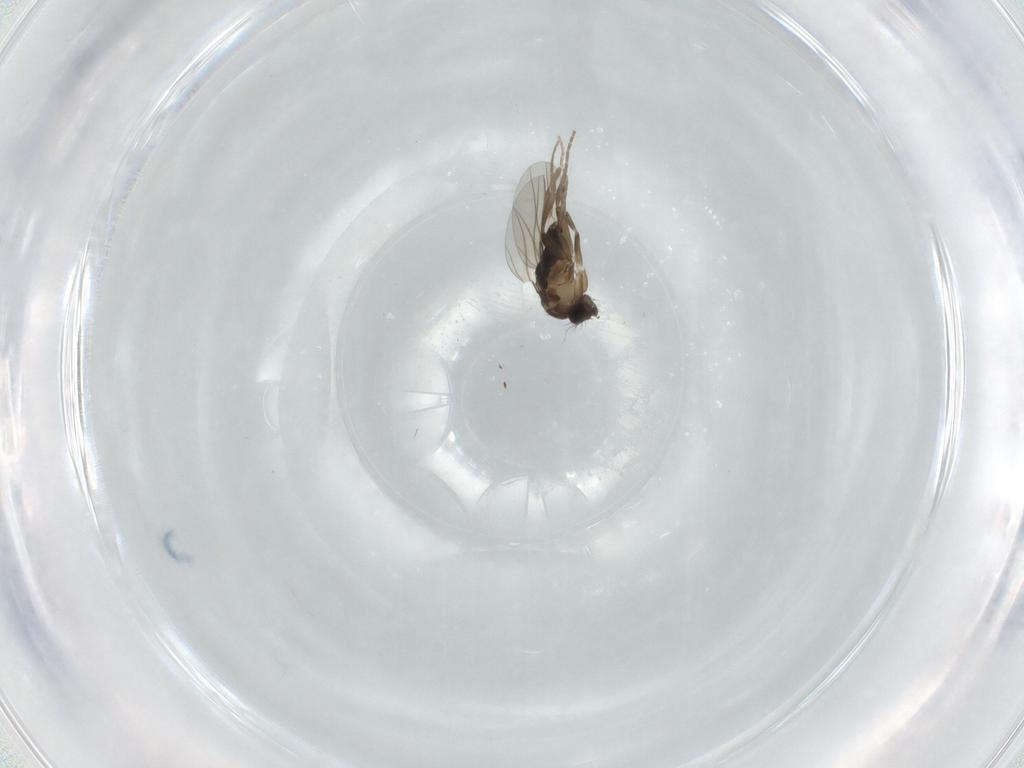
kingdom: Animalia
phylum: Arthropoda
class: Insecta
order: Diptera
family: Phoridae
